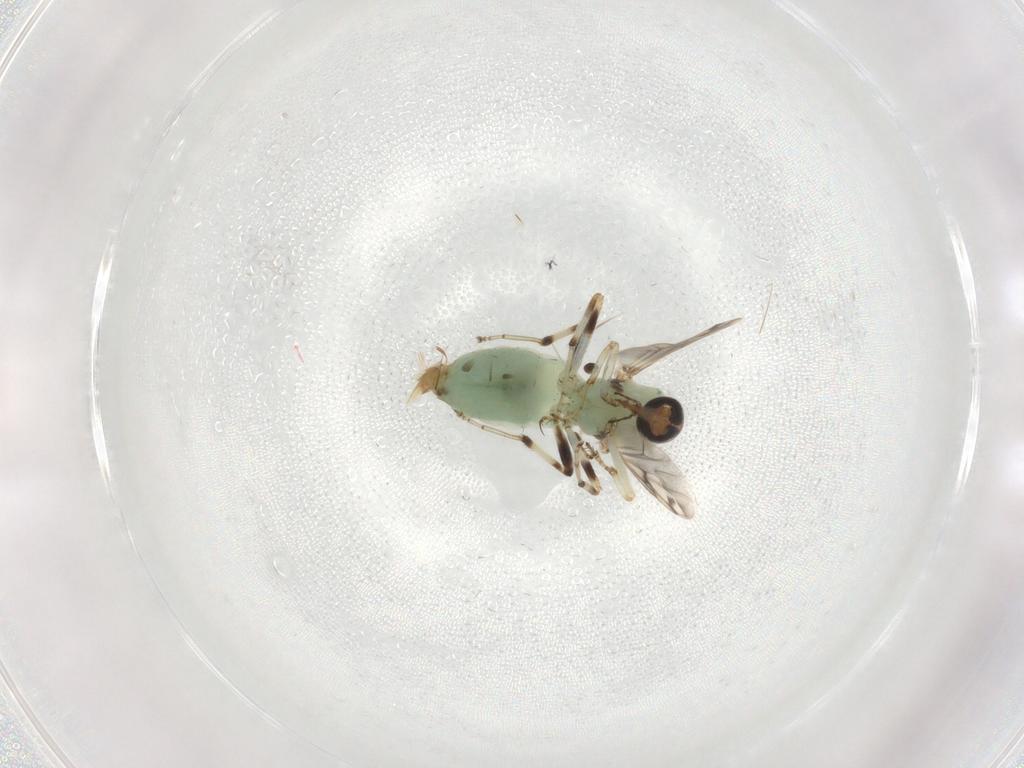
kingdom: Animalia
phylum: Arthropoda
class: Insecta
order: Diptera
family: Ceratopogonidae
